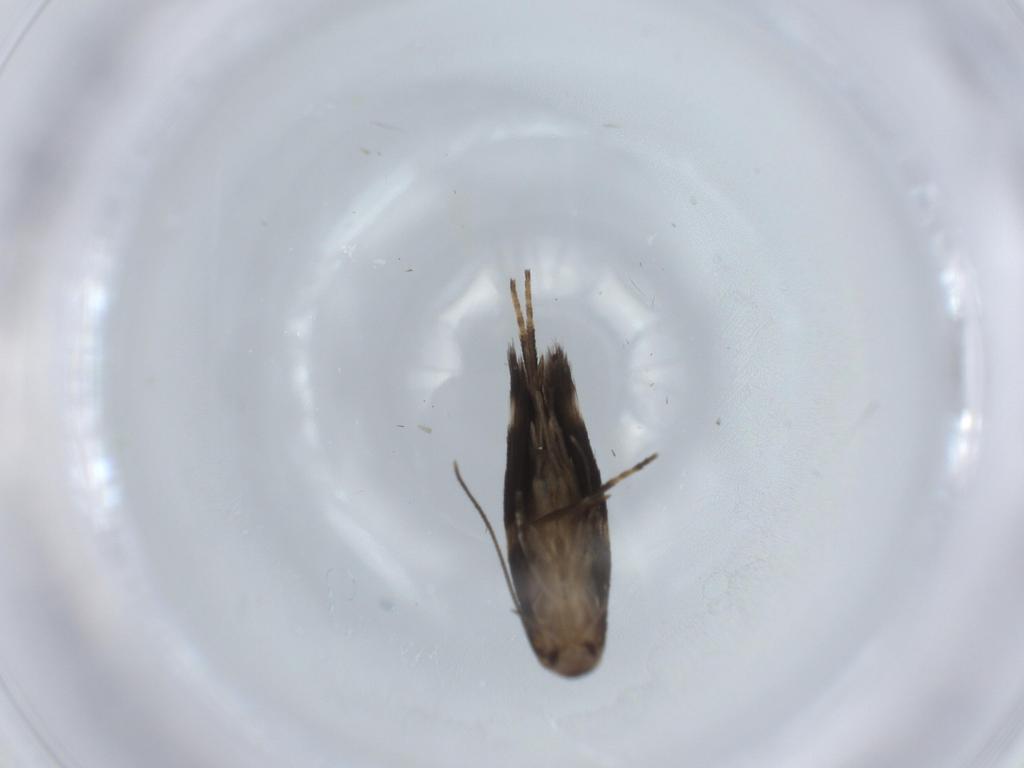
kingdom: Animalia
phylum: Arthropoda
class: Insecta
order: Lepidoptera
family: Cosmopterigidae
